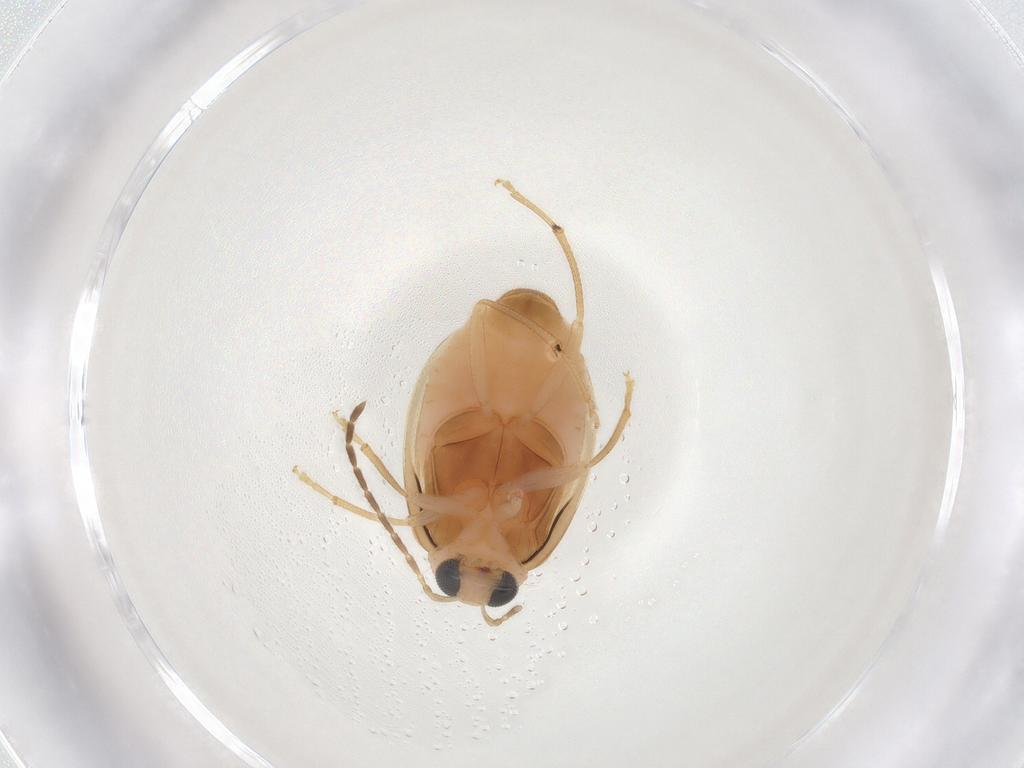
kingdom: Animalia
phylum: Arthropoda
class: Insecta
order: Coleoptera
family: Chrysomelidae
